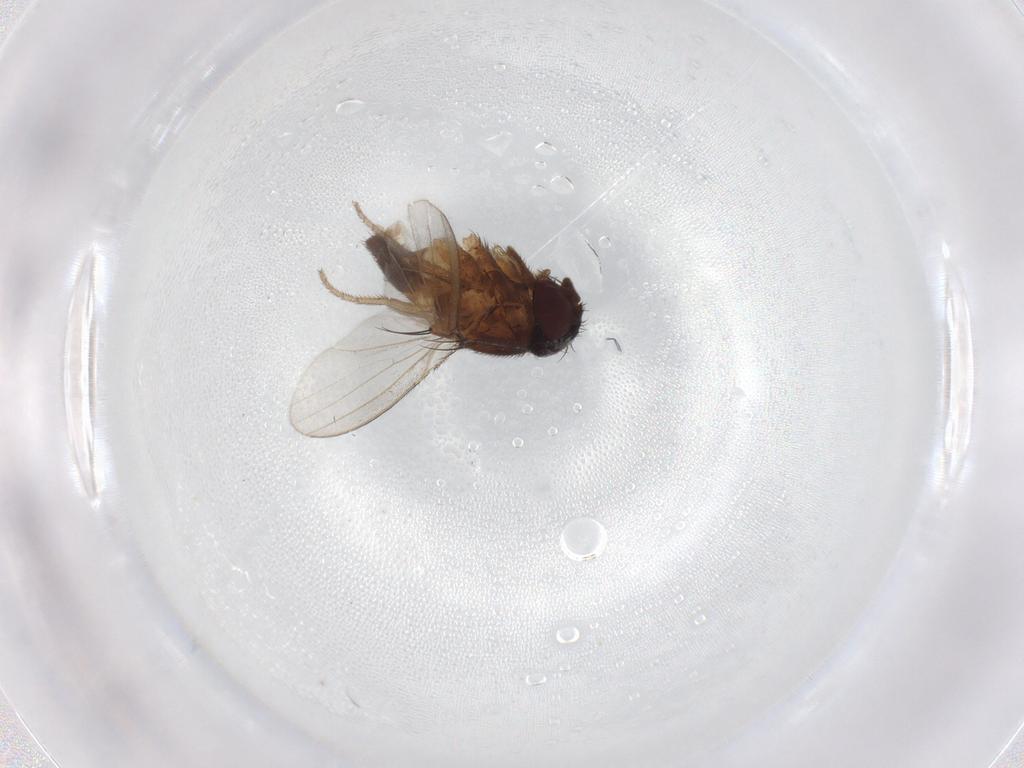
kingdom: Animalia
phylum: Arthropoda
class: Insecta
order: Diptera
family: Milichiidae
